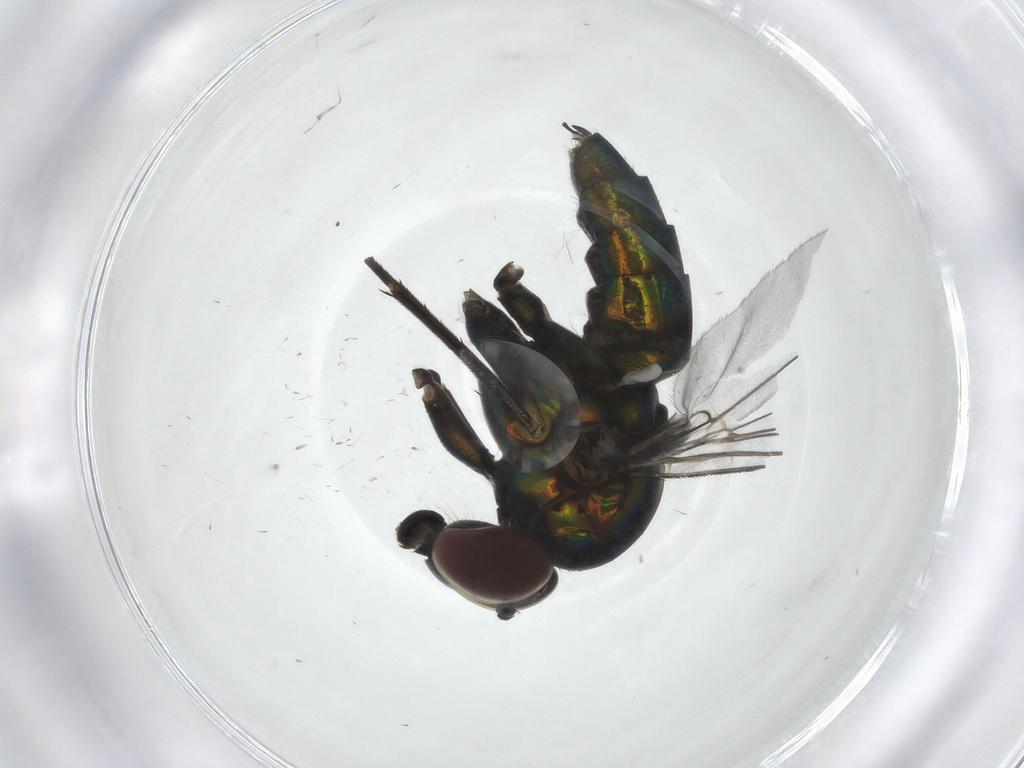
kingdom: Animalia
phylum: Arthropoda
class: Insecta
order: Diptera
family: Dolichopodidae
